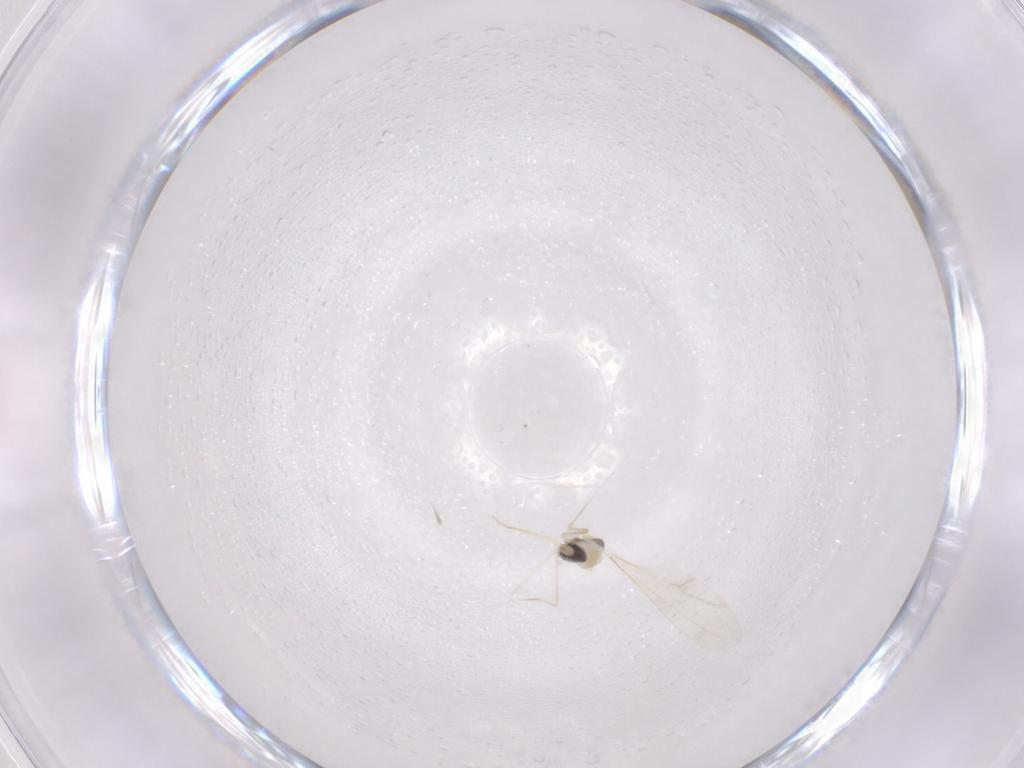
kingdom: Animalia
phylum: Arthropoda
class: Insecta
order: Diptera
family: Cecidomyiidae
